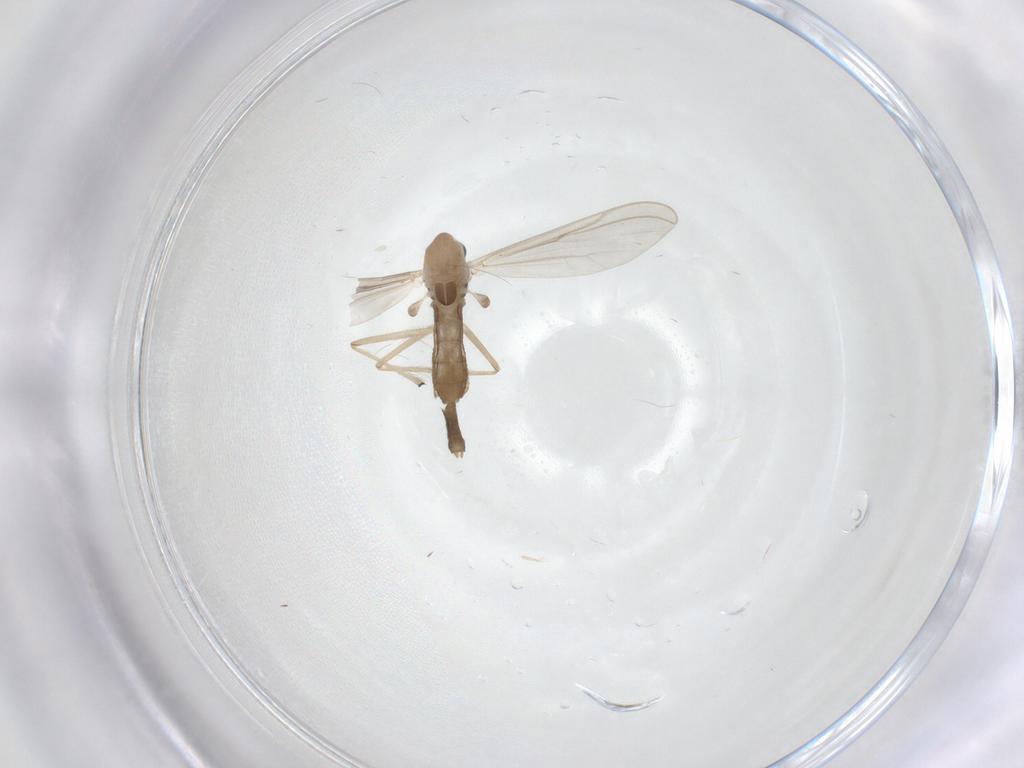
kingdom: Animalia
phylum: Arthropoda
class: Insecta
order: Diptera
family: Chironomidae
